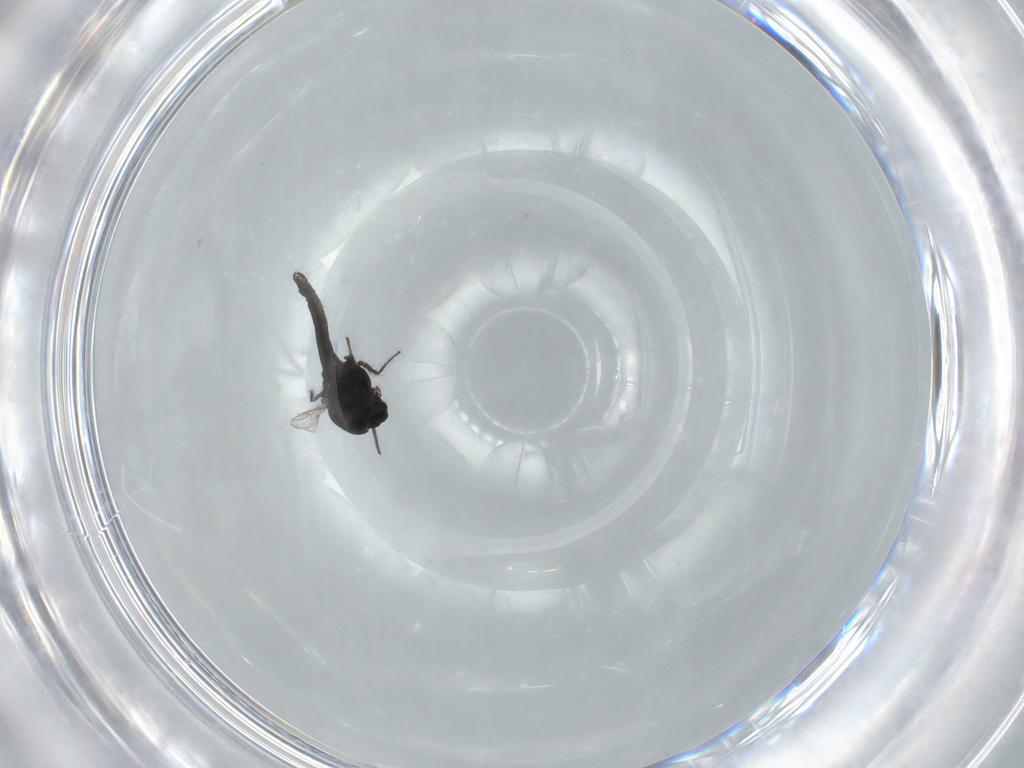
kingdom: Animalia
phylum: Arthropoda
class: Insecta
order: Diptera
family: Chironomidae
